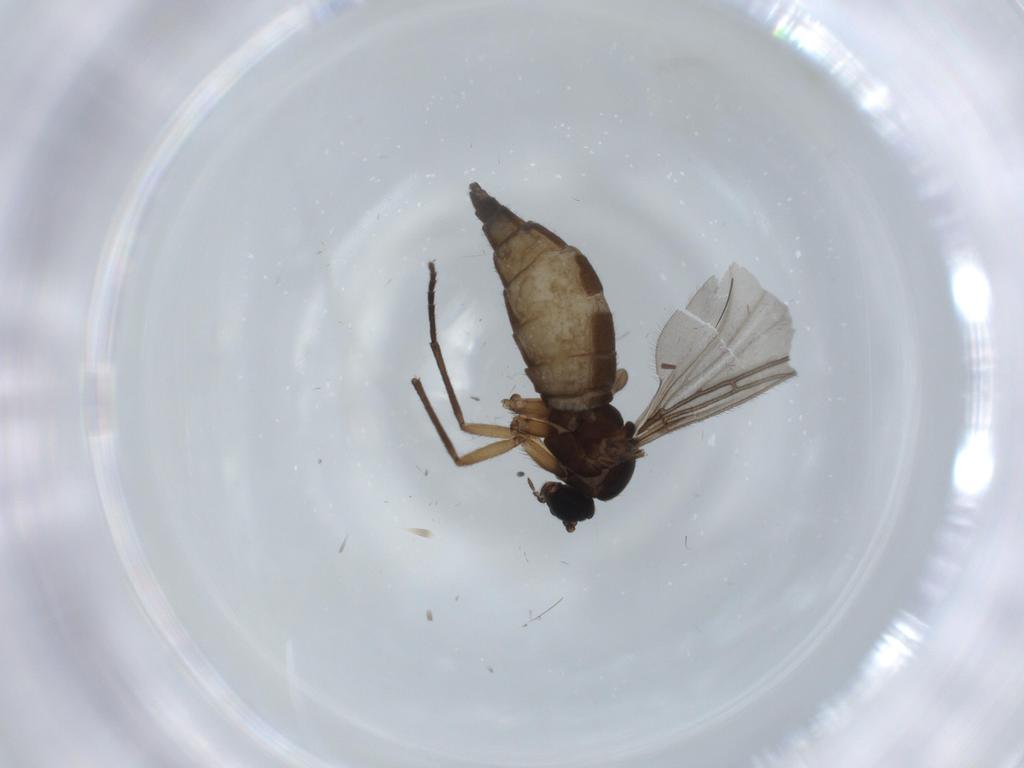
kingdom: Animalia
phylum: Arthropoda
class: Insecta
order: Diptera
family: Sciaridae
